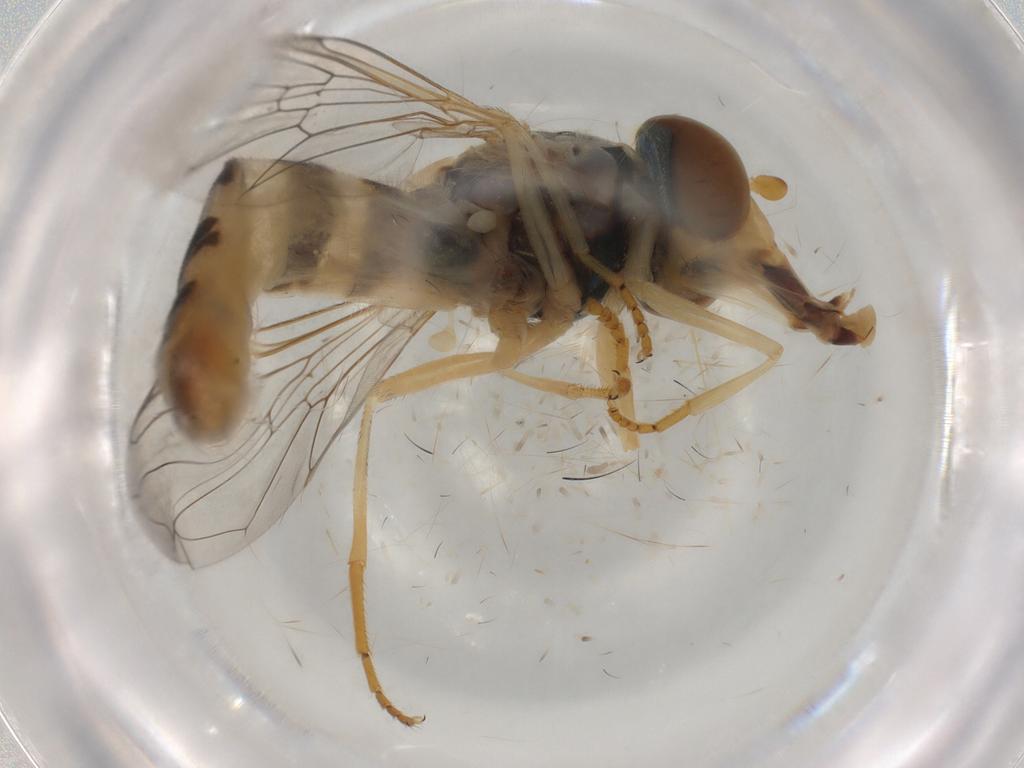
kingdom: Animalia
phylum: Arthropoda
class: Insecta
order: Diptera
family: Syrphidae
